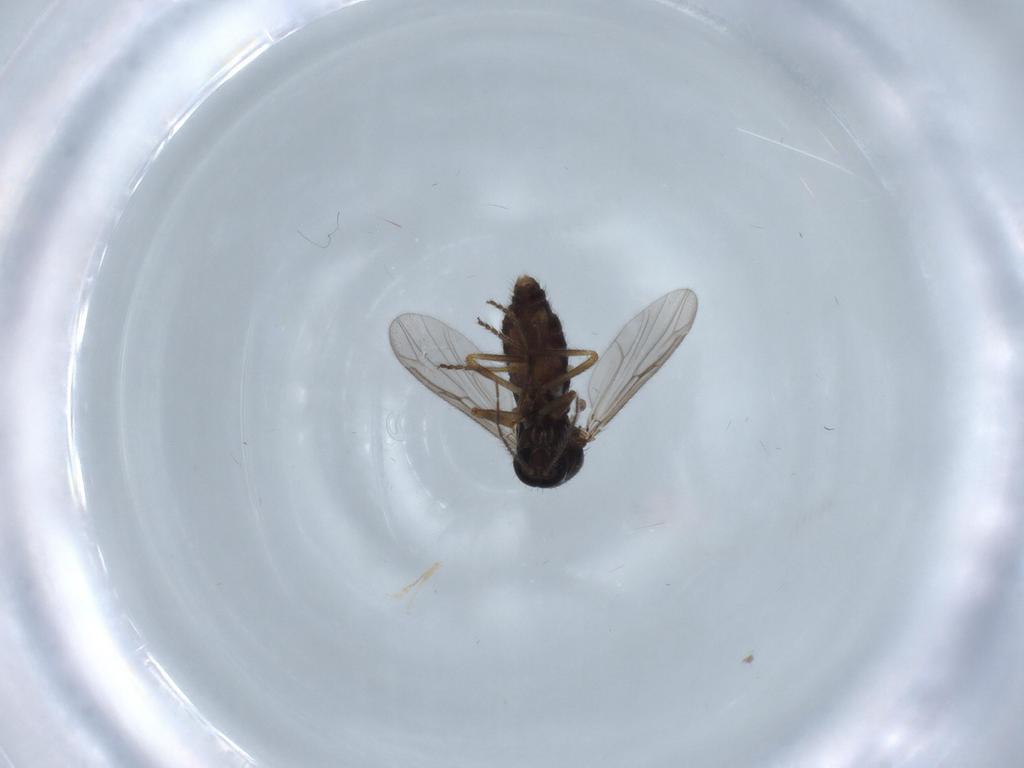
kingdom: Animalia
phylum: Arthropoda
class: Insecta
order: Diptera
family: Ceratopogonidae
